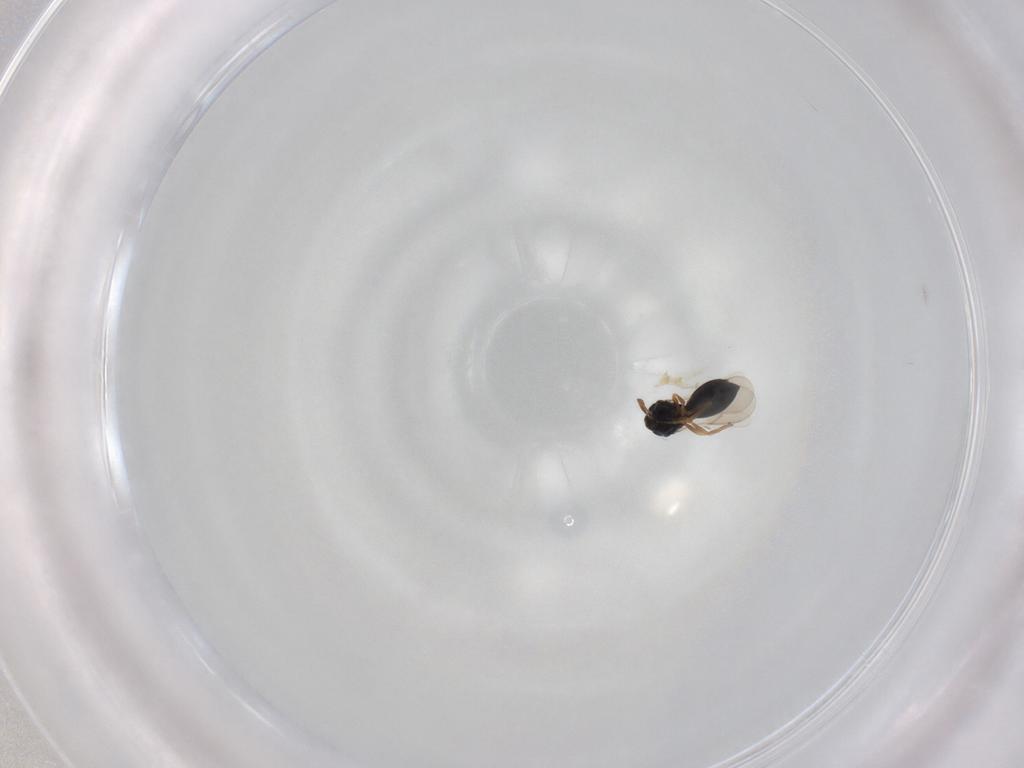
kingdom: Animalia
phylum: Arthropoda
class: Insecta
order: Hymenoptera
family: Scelionidae
